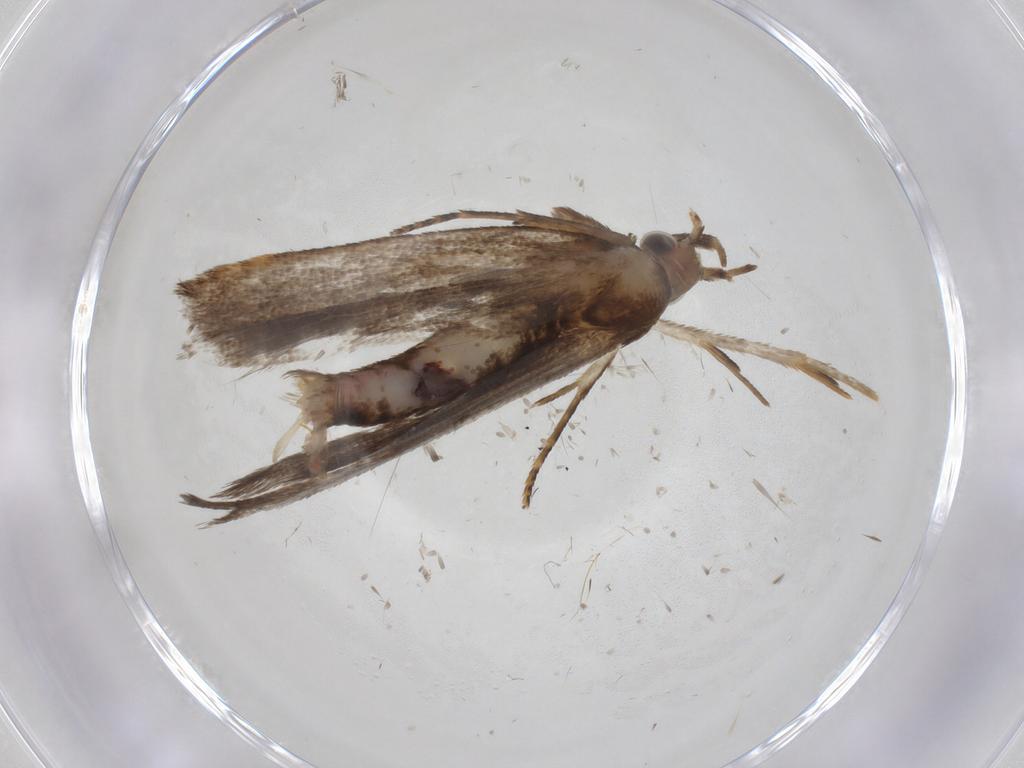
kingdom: Animalia
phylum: Arthropoda
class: Insecta
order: Lepidoptera
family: Gelechiidae
